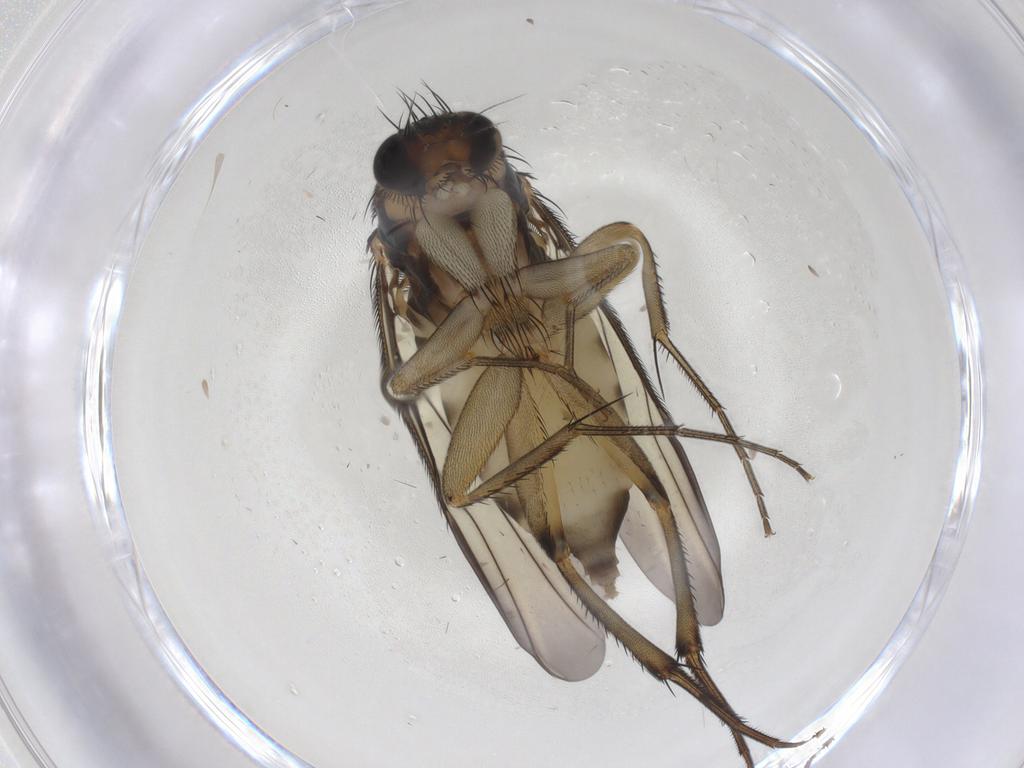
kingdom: Animalia
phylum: Arthropoda
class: Insecta
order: Diptera
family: Phoridae
